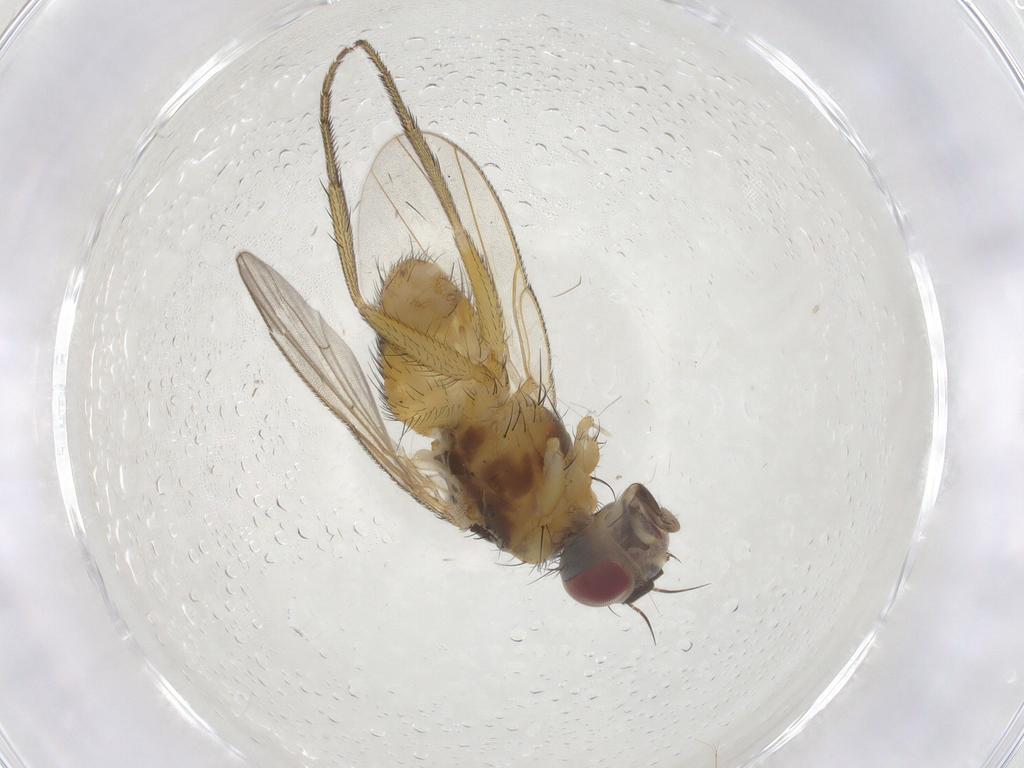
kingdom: Animalia
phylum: Arthropoda
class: Insecta
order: Diptera
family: Muscidae
